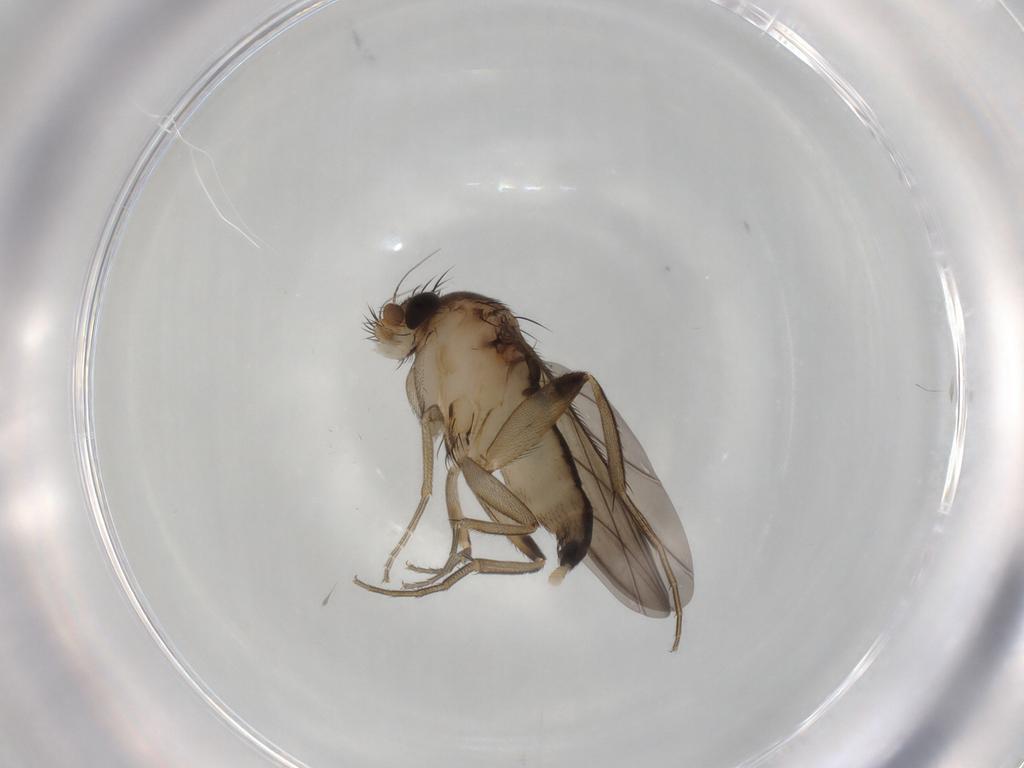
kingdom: Animalia
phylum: Arthropoda
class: Insecta
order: Diptera
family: Phoridae
